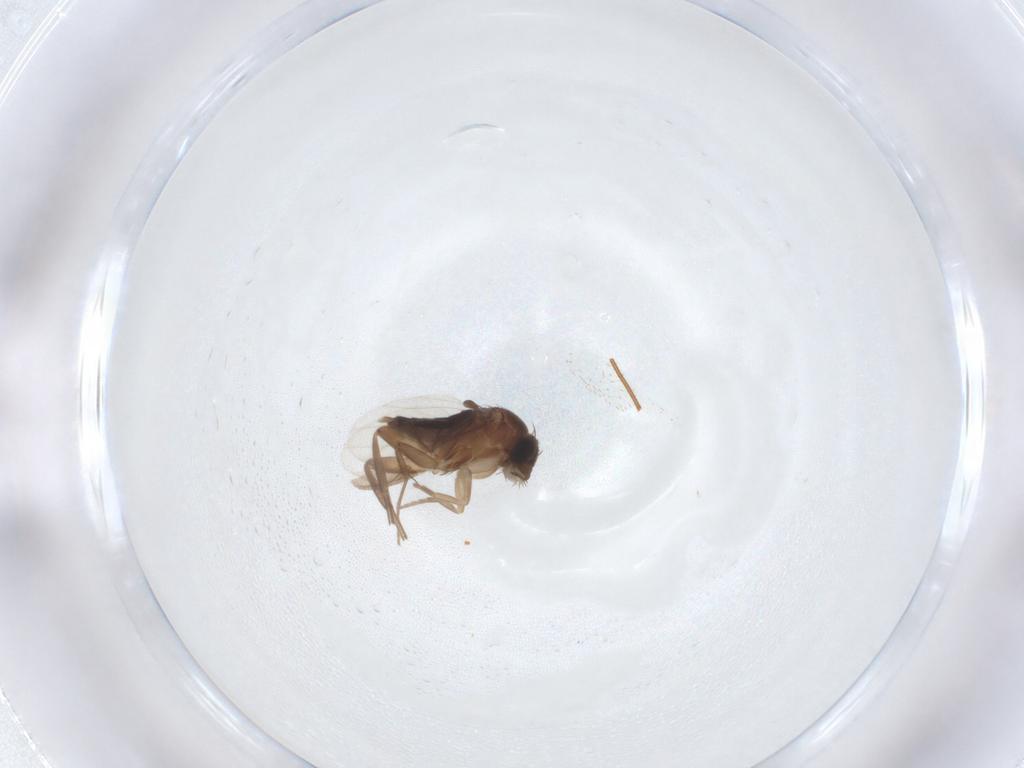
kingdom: Animalia
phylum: Arthropoda
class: Insecta
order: Diptera
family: Phoridae
